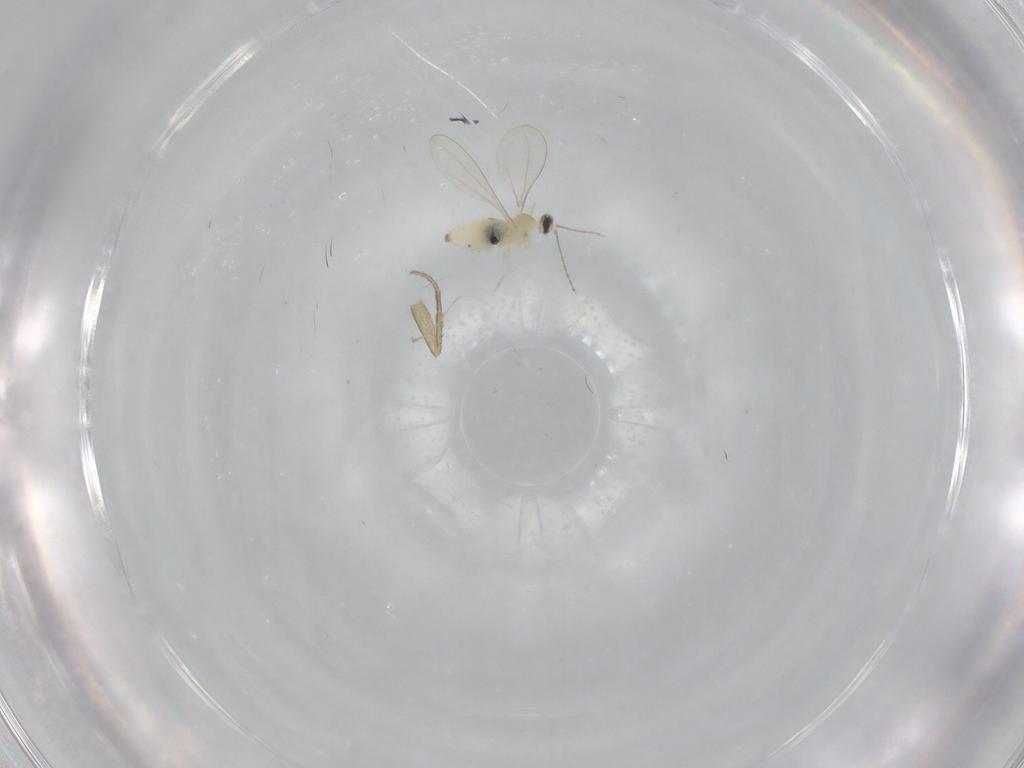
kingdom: Animalia
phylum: Arthropoda
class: Insecta
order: Diptera
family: Phoridae
